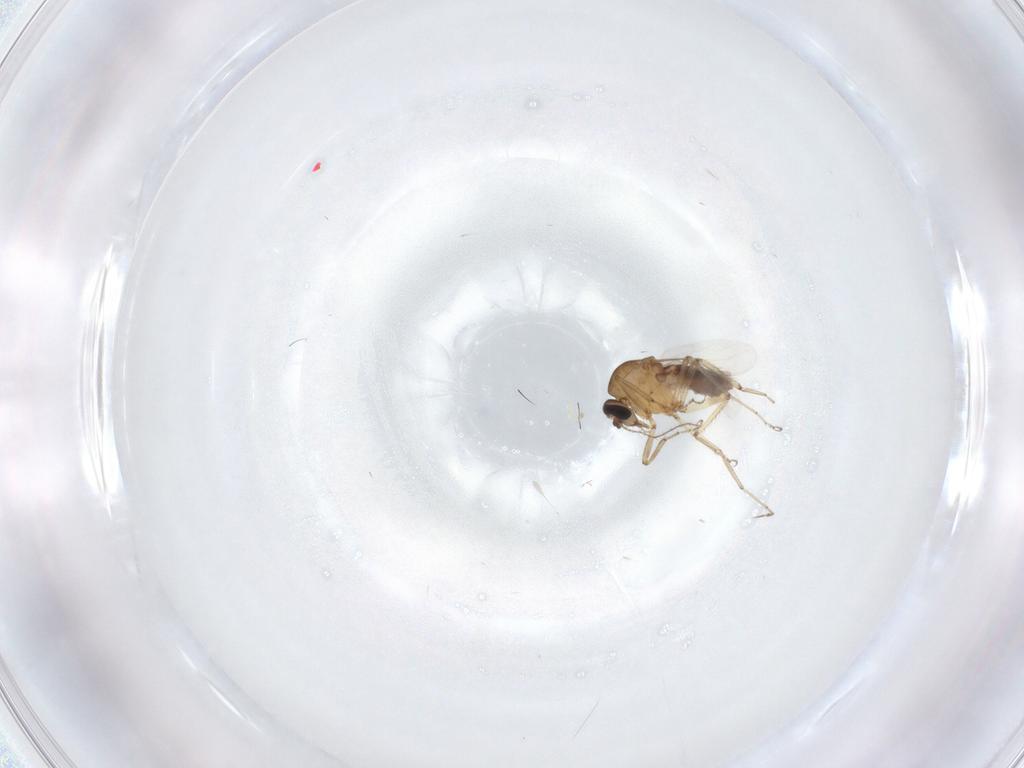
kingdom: Animalia
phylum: Arthropoda
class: Insecta
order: Diptera
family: Ceratopogonidae
